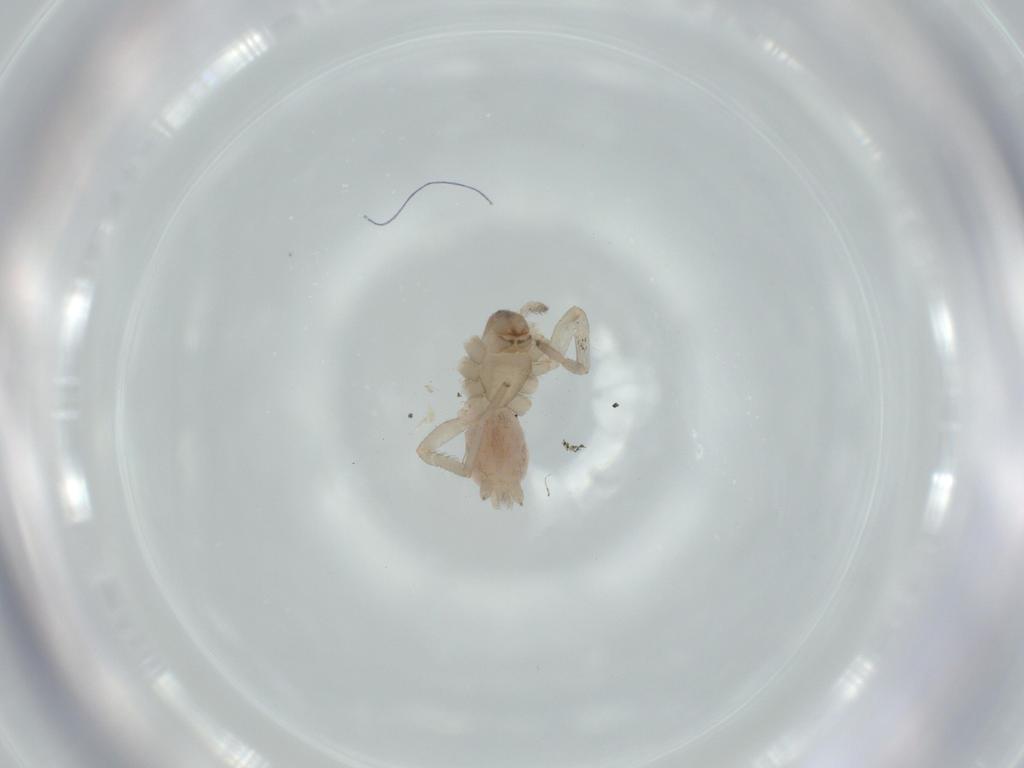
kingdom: Animalia
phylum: Arthropoda
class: Arachnida
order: Araneae
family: Gnaphosidae
